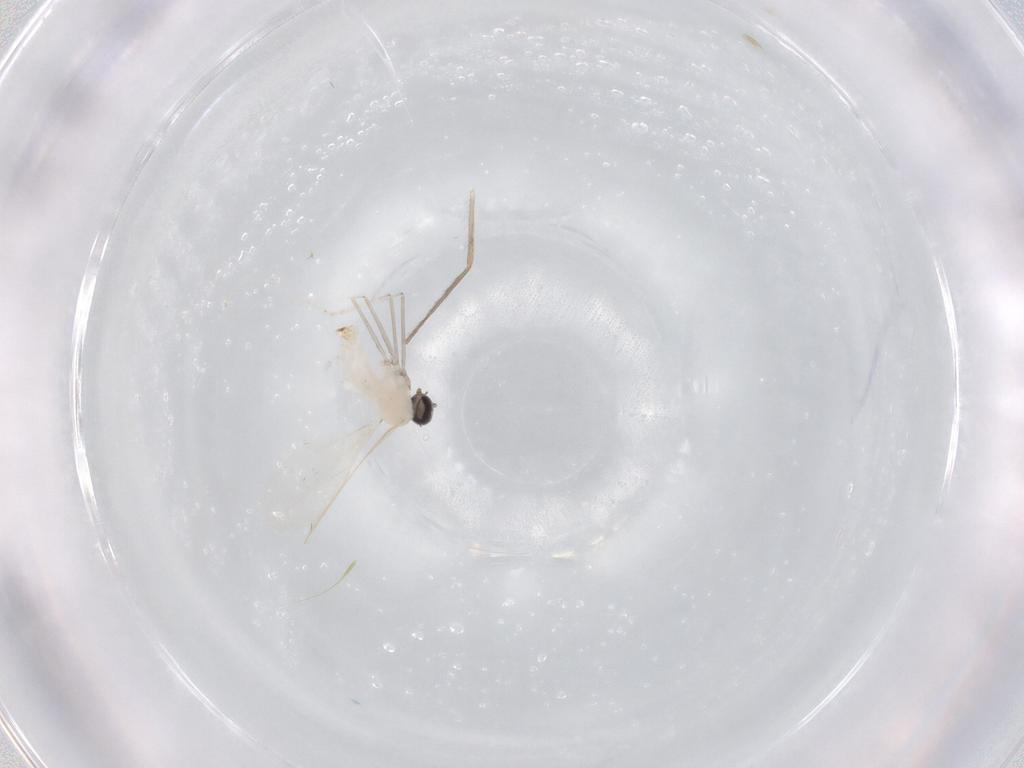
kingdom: Animalia
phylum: Arthropoda
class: Insecta
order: Diptera
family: Chironomidae
